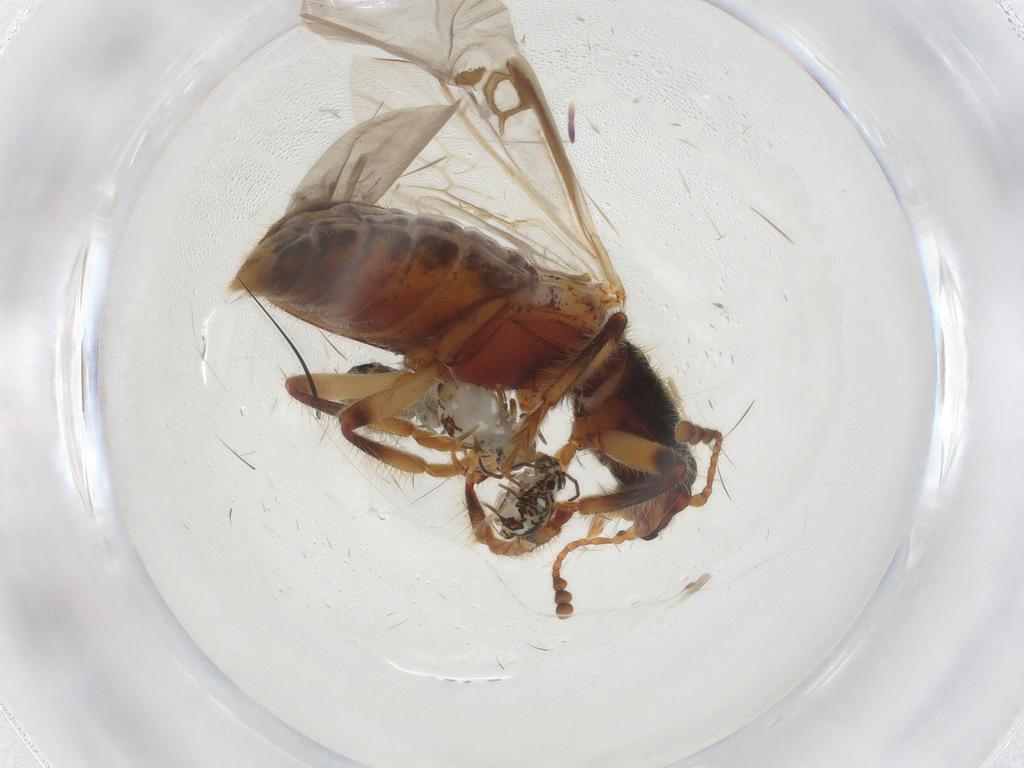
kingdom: Animalia
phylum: Arthropoda
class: Insecta
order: Coleoptera
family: Cleridae
